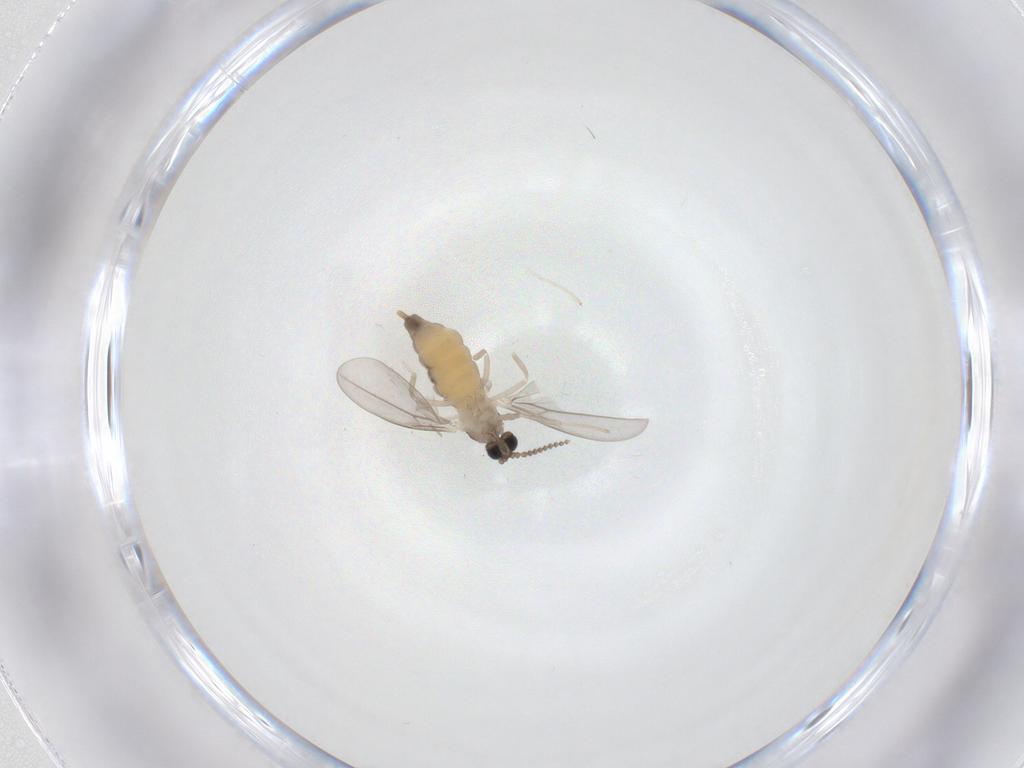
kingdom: Animalia
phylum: Arthropoda
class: Insecta
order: Diptera
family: Cecidomyiidae
